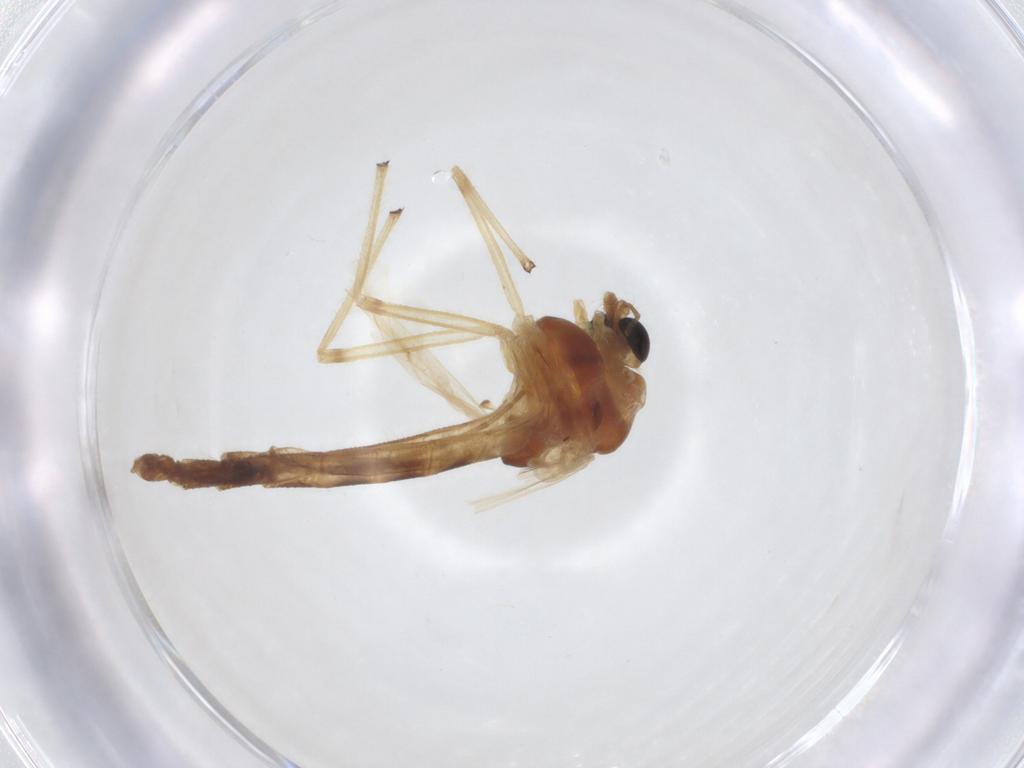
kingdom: Animalia
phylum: Arthropoda
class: Insecta
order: Diptera
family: Chironomidae
